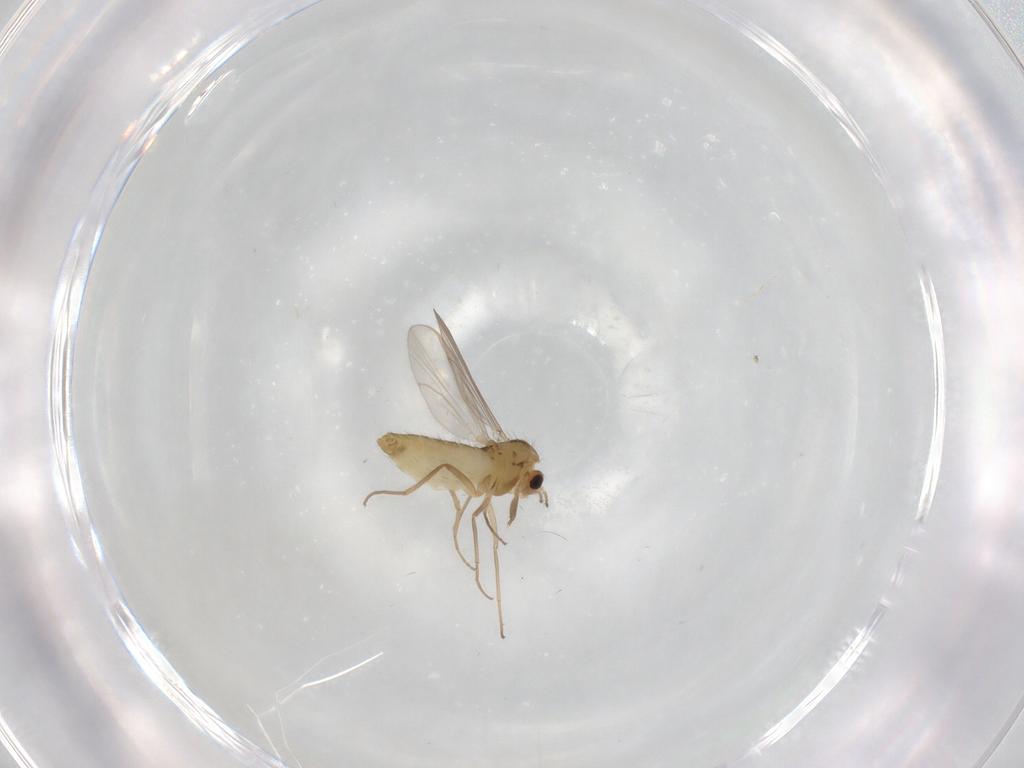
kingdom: Animalia
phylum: Arthropoda
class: Insecta
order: Diptera
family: Chironomidae
